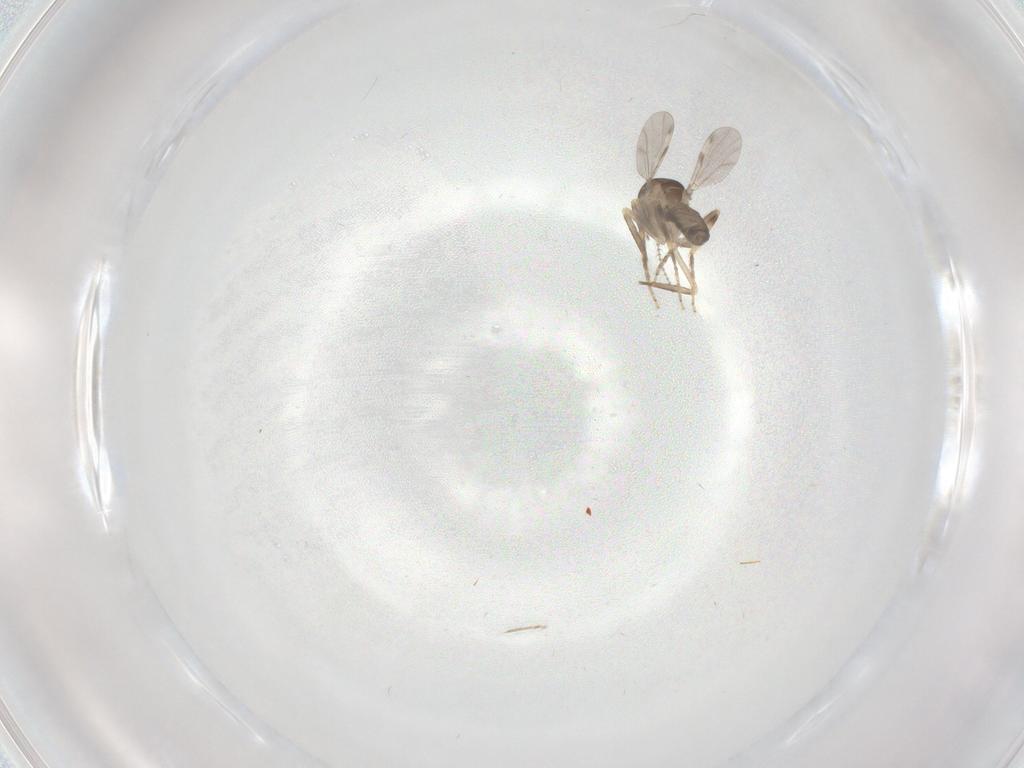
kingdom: Animalia
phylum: Arthropoda
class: Insecta
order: Diptera
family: Ceratopogonidae
